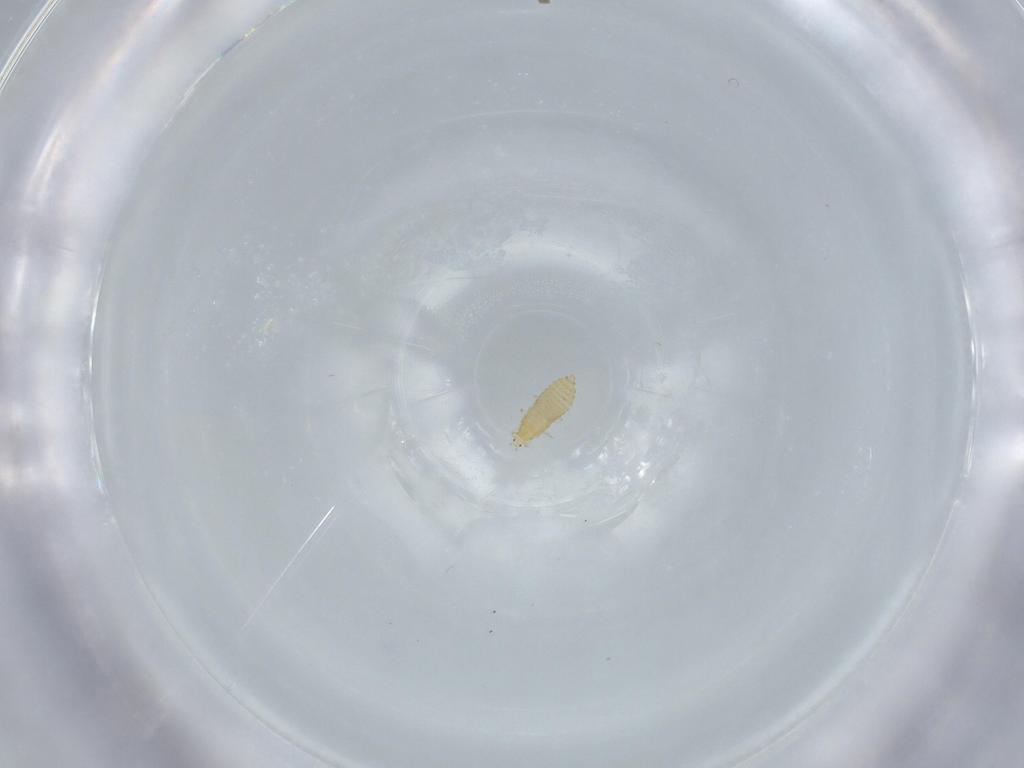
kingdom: Animalia
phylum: Arthropoda
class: Insecta
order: Thysanoptera
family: Thripidae
